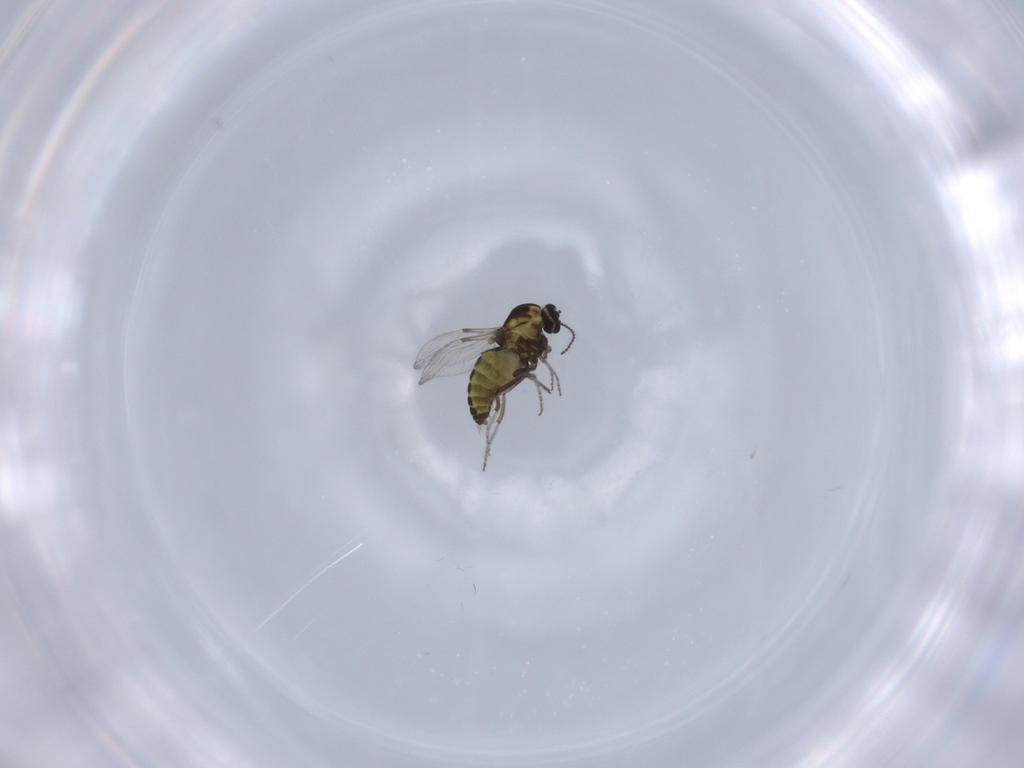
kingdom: Animalia
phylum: Arthropoda
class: Insecta
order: Diptera
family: Ceratopogonidae
